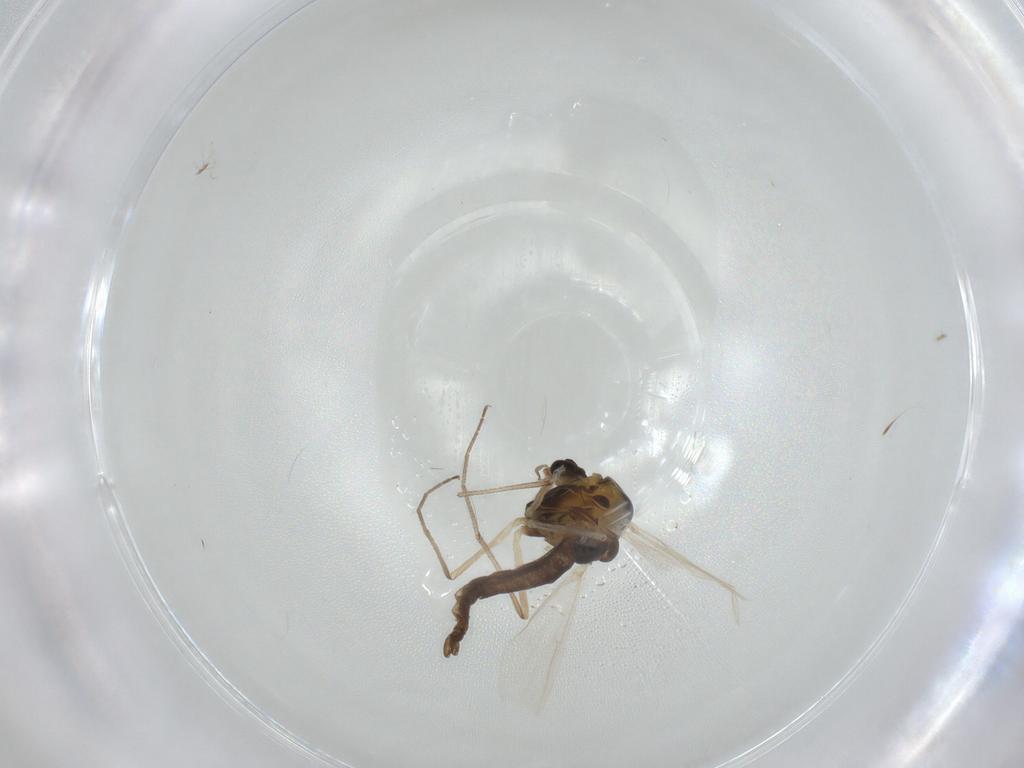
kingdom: Animalia
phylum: Arthropoda
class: Insecta
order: Diptera
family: Chironomidae
